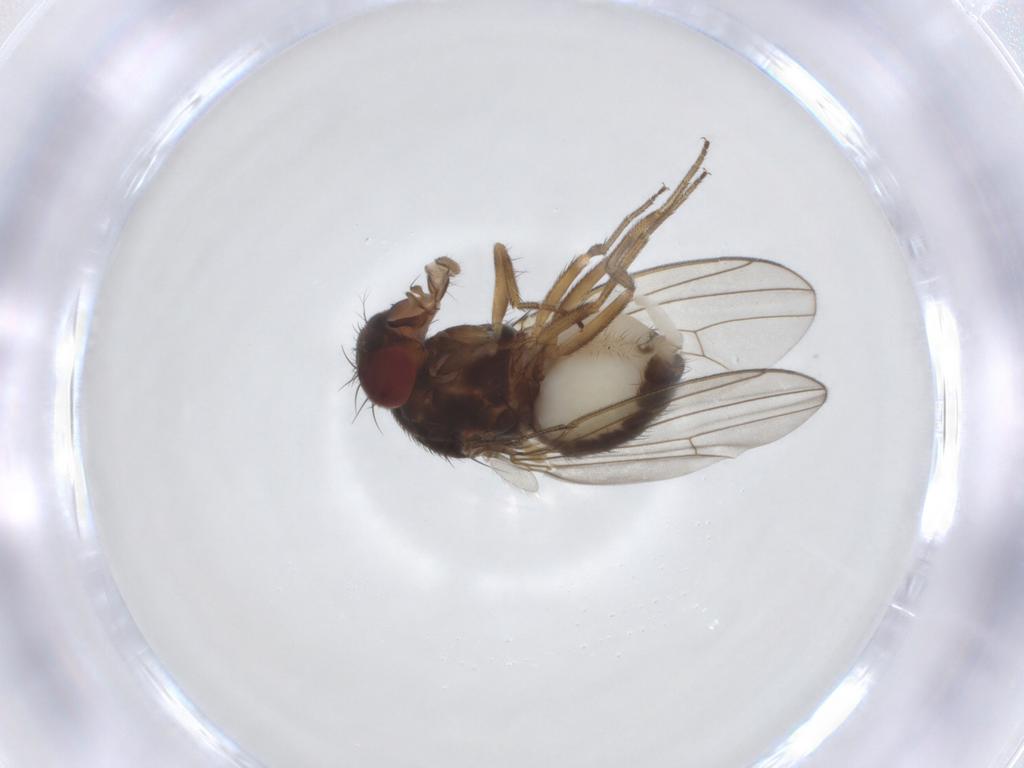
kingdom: Animalia
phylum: Arthropoda
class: Insecta
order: Diptera
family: Drosophilidae
